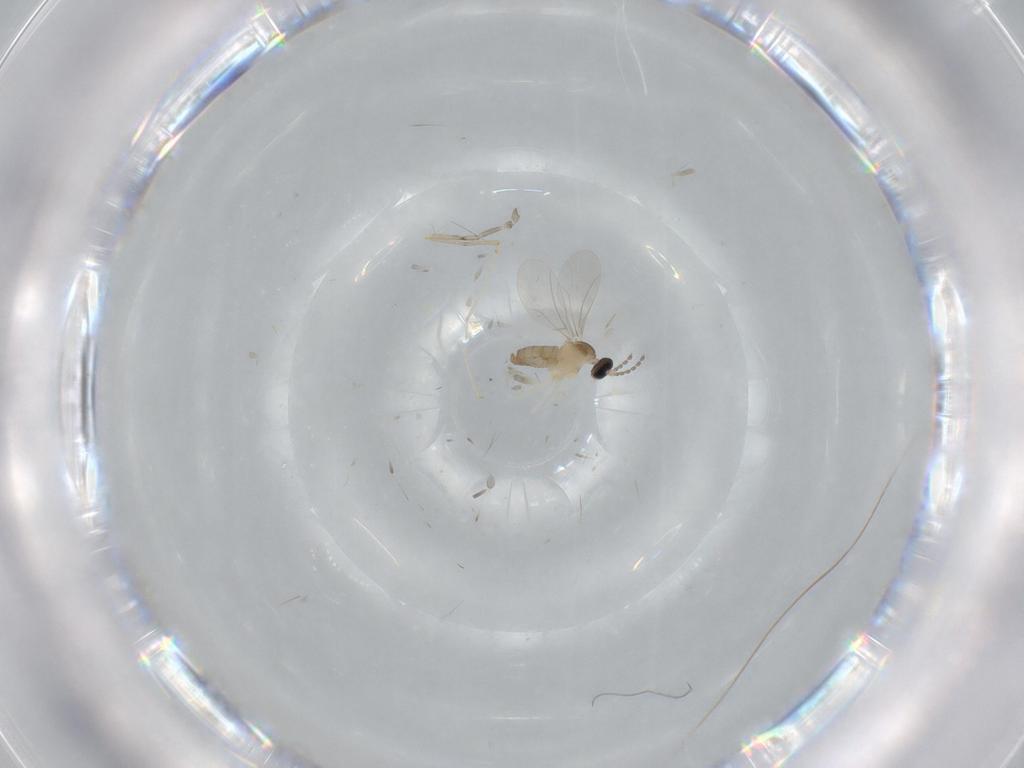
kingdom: Animalia
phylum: Arthropoda
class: Insecta
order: Diptera
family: Cecidomyiidae
